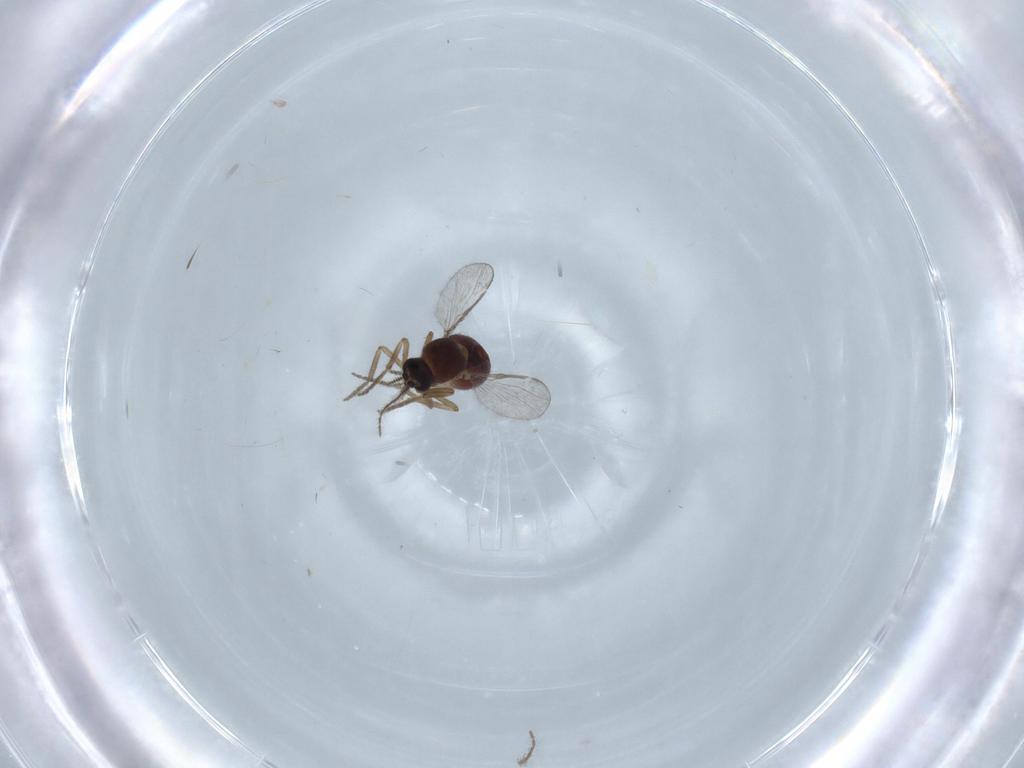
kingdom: Animalia
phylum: Arthropoda
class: Insecta
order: Diptera
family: Ceratopogonidae
